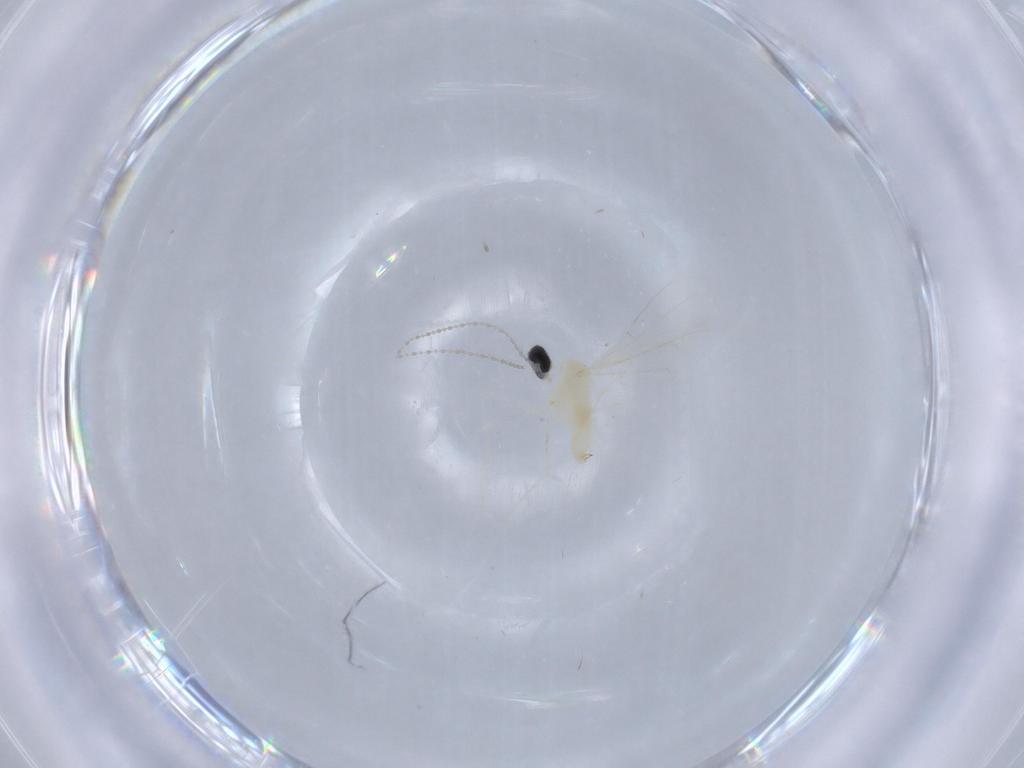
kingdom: Animalia
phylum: Arthropoda
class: Insecta
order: Diptera
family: Cecidomyiidae
